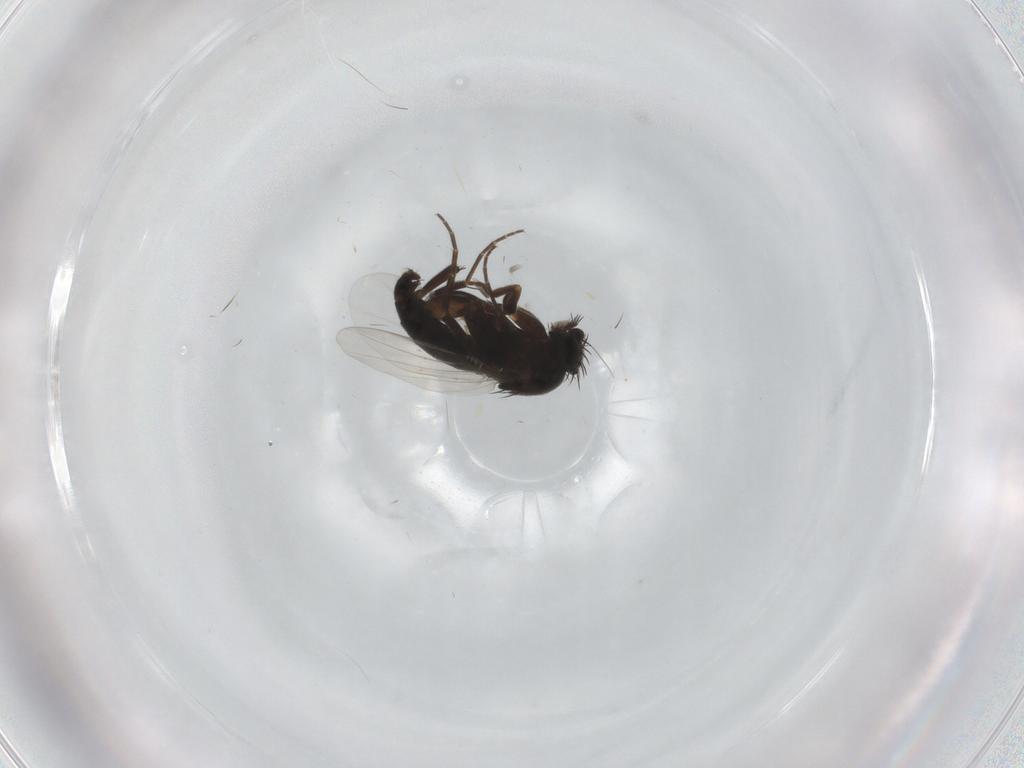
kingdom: Animalia
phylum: Arthropoda
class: Insecta
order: Diptera
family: Phoridae
